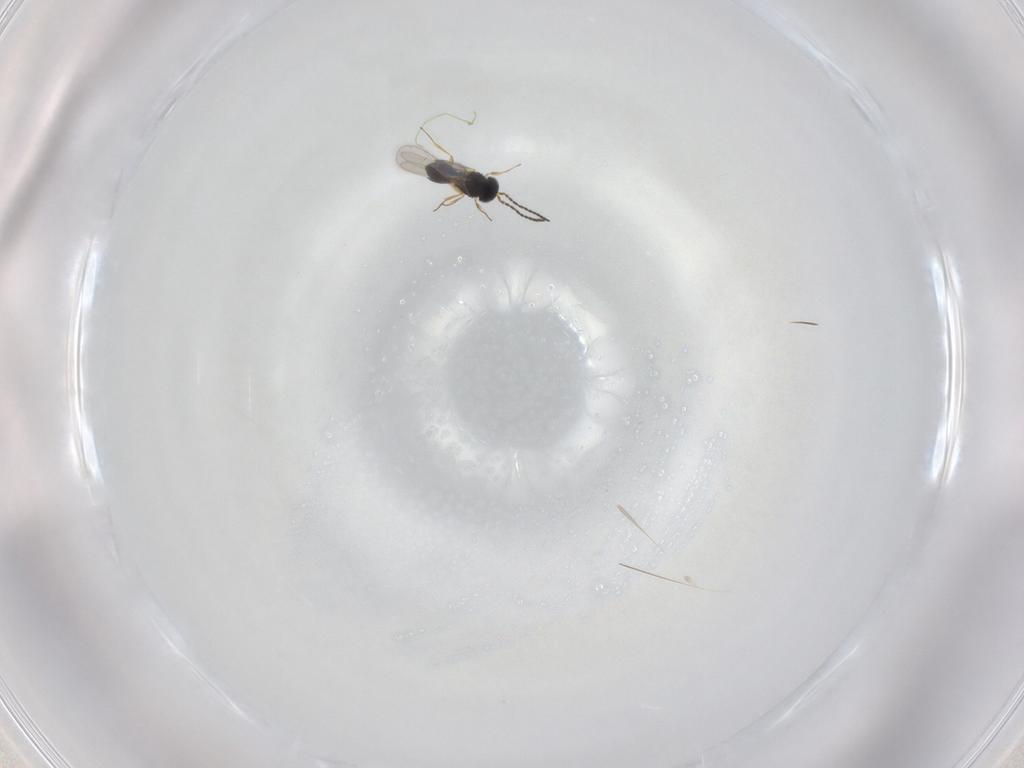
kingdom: Animalia
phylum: Arthropoda
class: Insecta
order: Hymenoptera
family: Scelionidae
